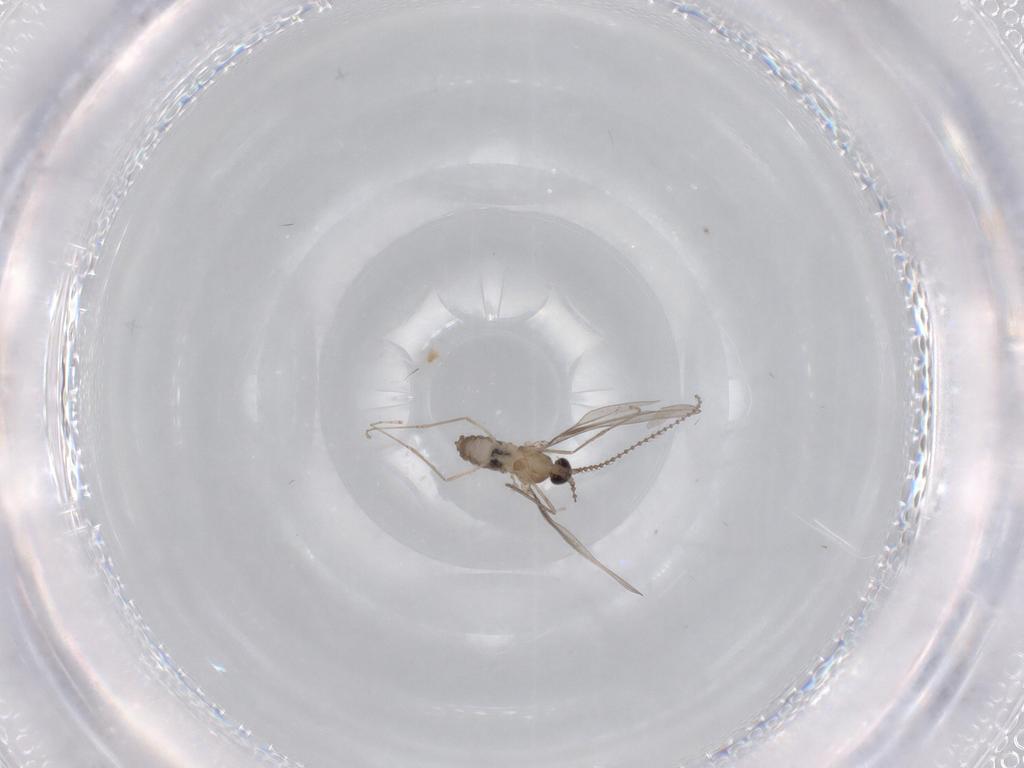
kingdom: Animalia
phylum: Arthropoda
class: Insecta
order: Diptera
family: Cecidomyiidae
